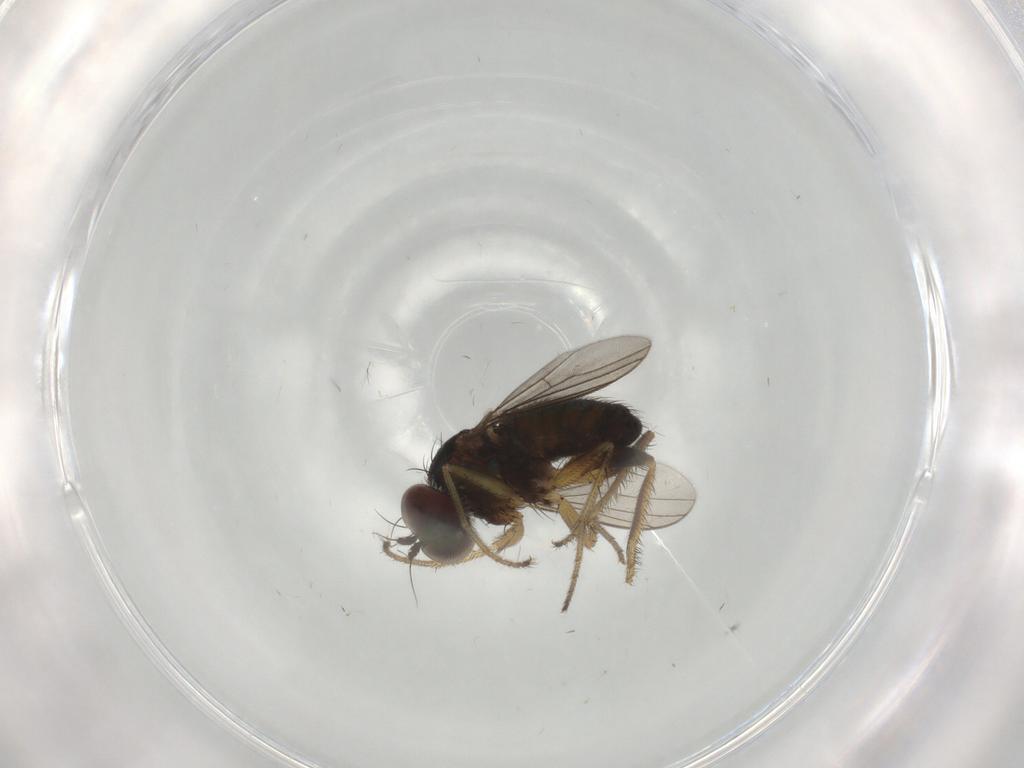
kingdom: Animalia
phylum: Arthropoda
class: Insecta
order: Diptera
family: Dolichopodidae
